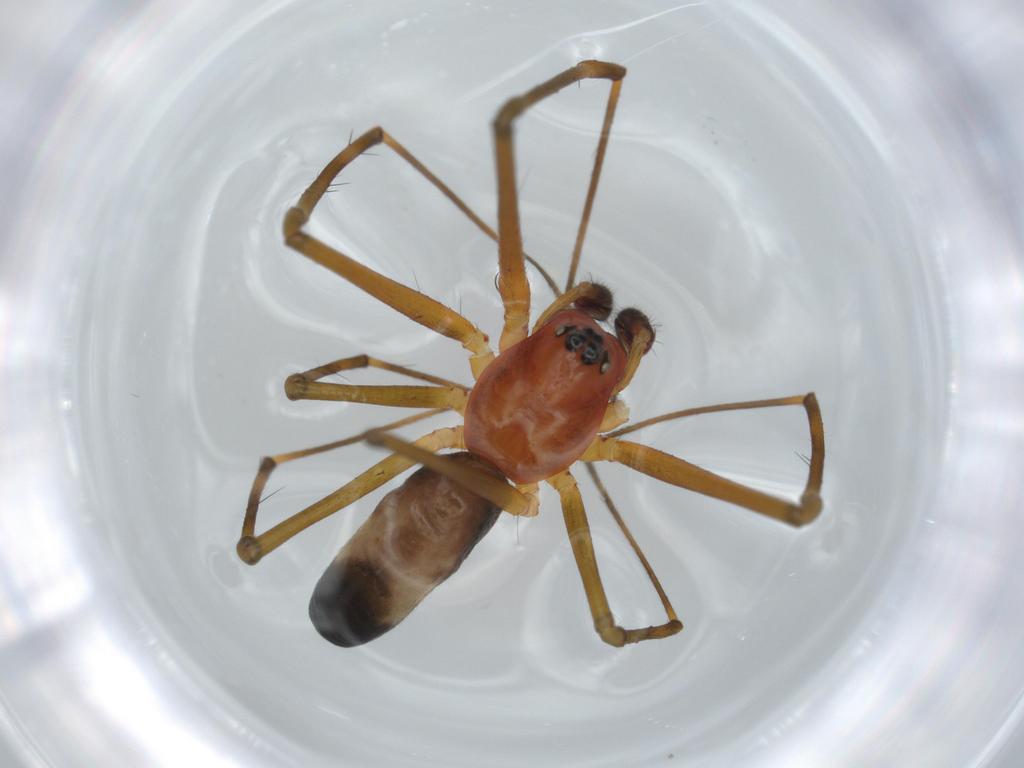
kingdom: Animalia
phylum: Arthropoda
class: Arachnida
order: Araneae
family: Linyphiidae
